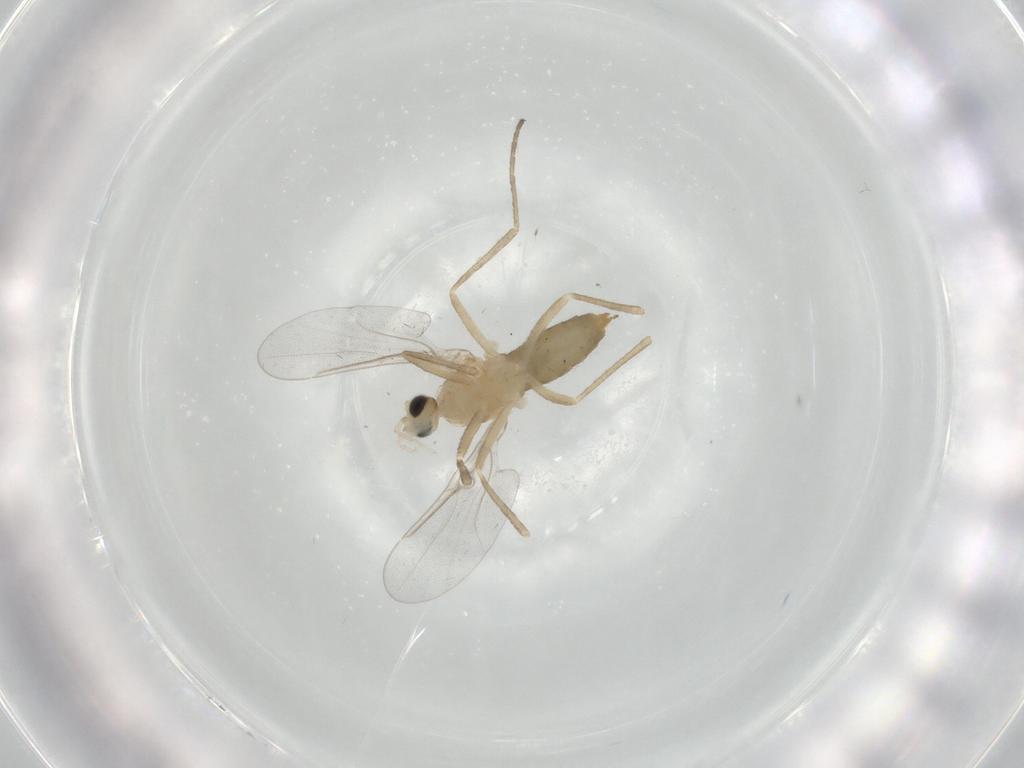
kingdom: Animalia
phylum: Arthropoda
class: Insecta
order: Diptera
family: Cecidomyiidae
